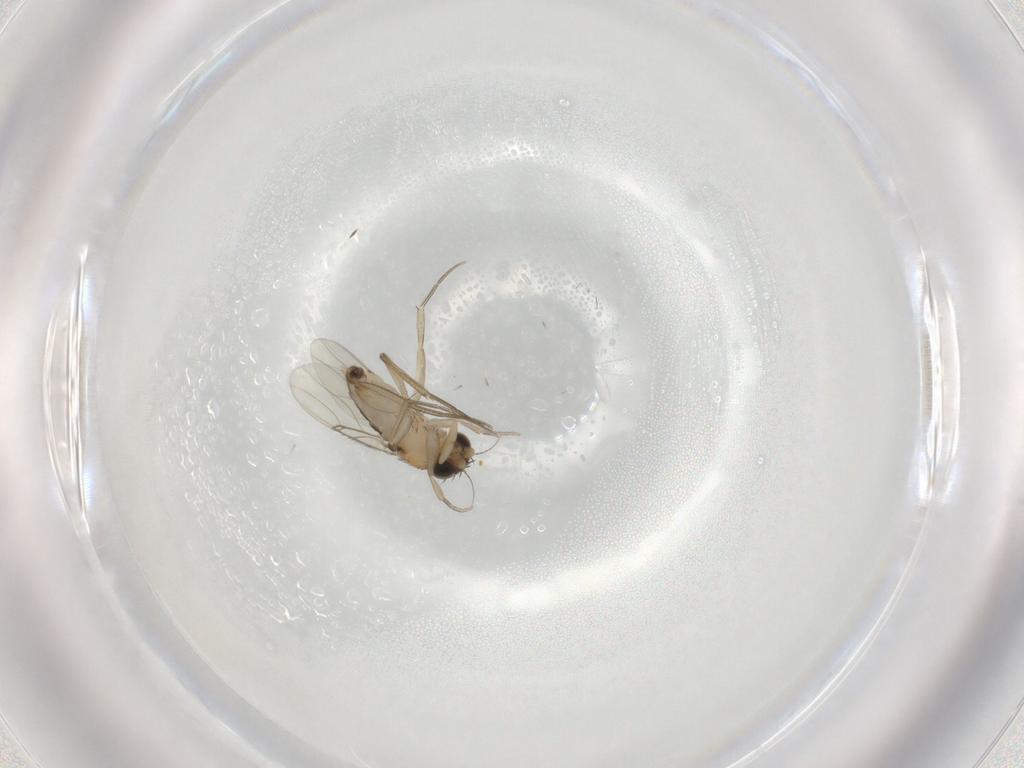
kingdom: Animalia
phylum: Arthropoda
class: Insecta
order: Diptera
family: Phoridae
